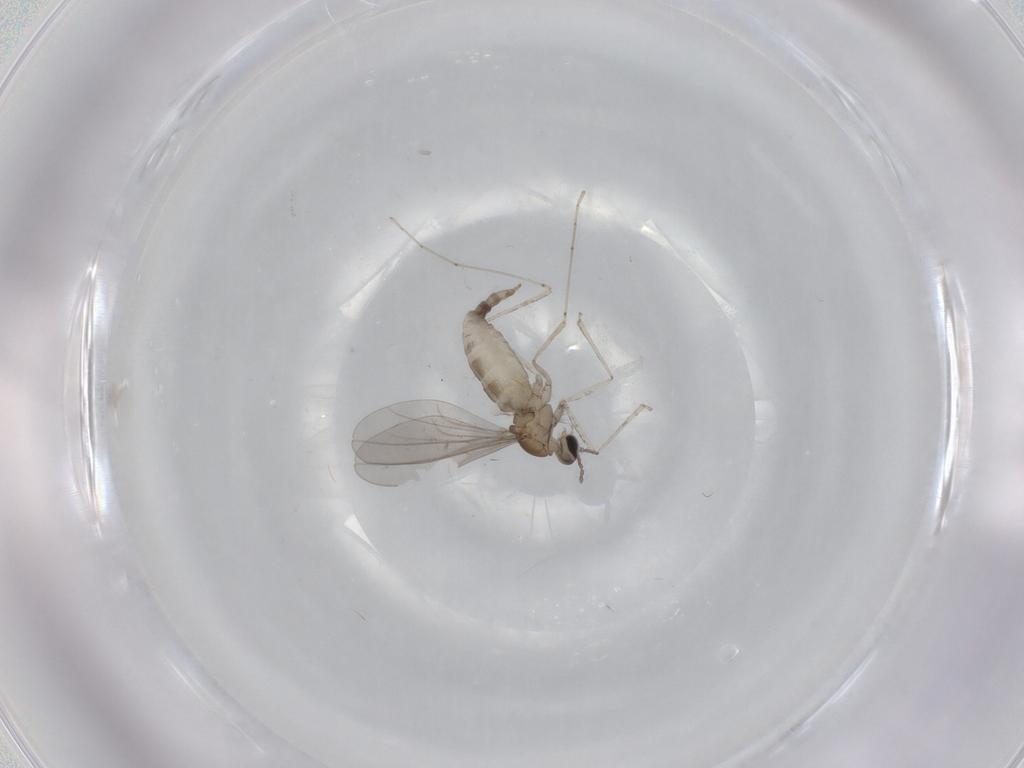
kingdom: Animalia
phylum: Arthropoda
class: Insecta
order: Diptera
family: Cecidomyiidae
